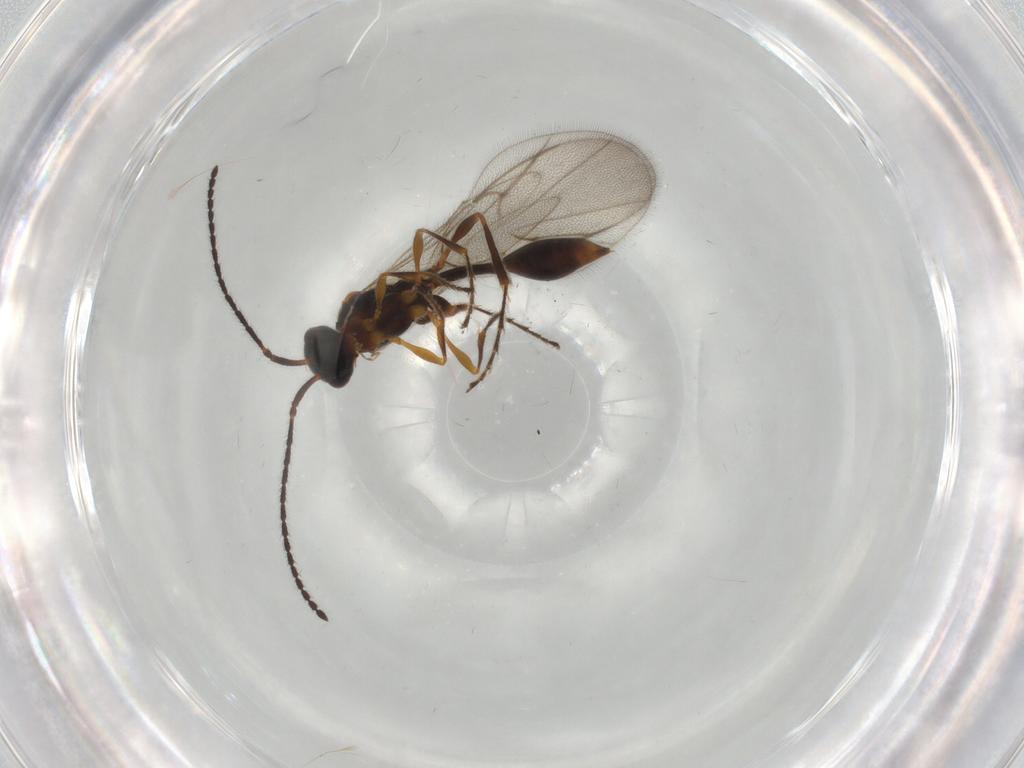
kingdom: Animalia
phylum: Arthropoda
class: Insecta
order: Hymenoptera
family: Diapriidae
